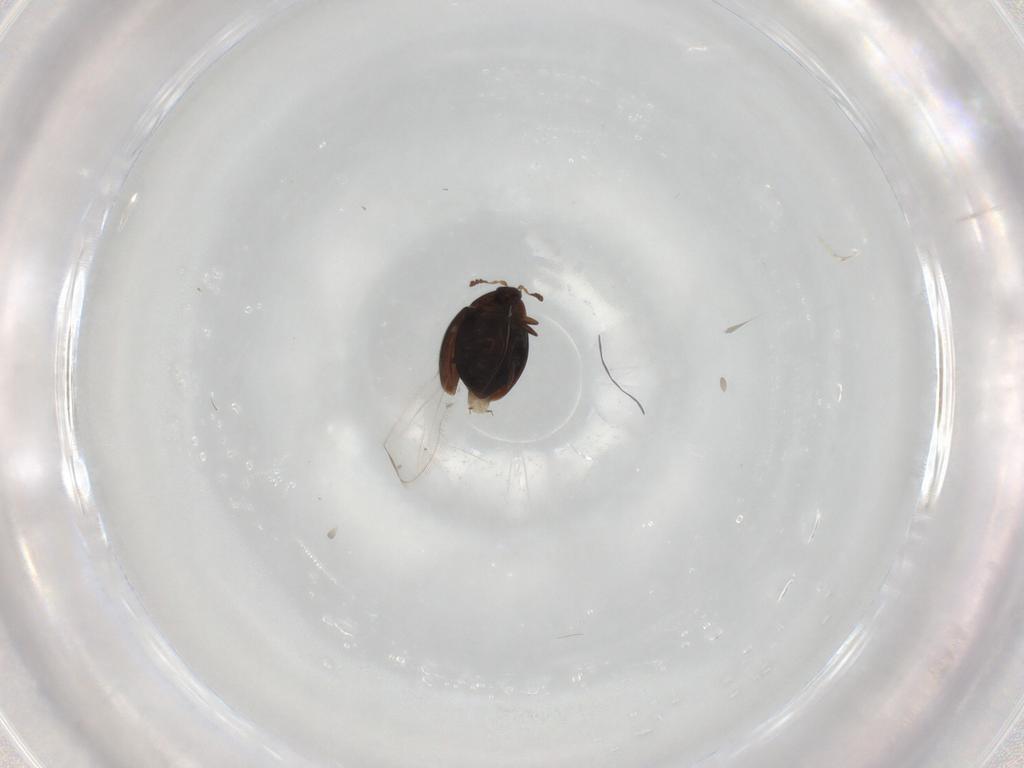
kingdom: Animalia
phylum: Arthropoda
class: Insecta
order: Coleoptera
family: Corylophidae
